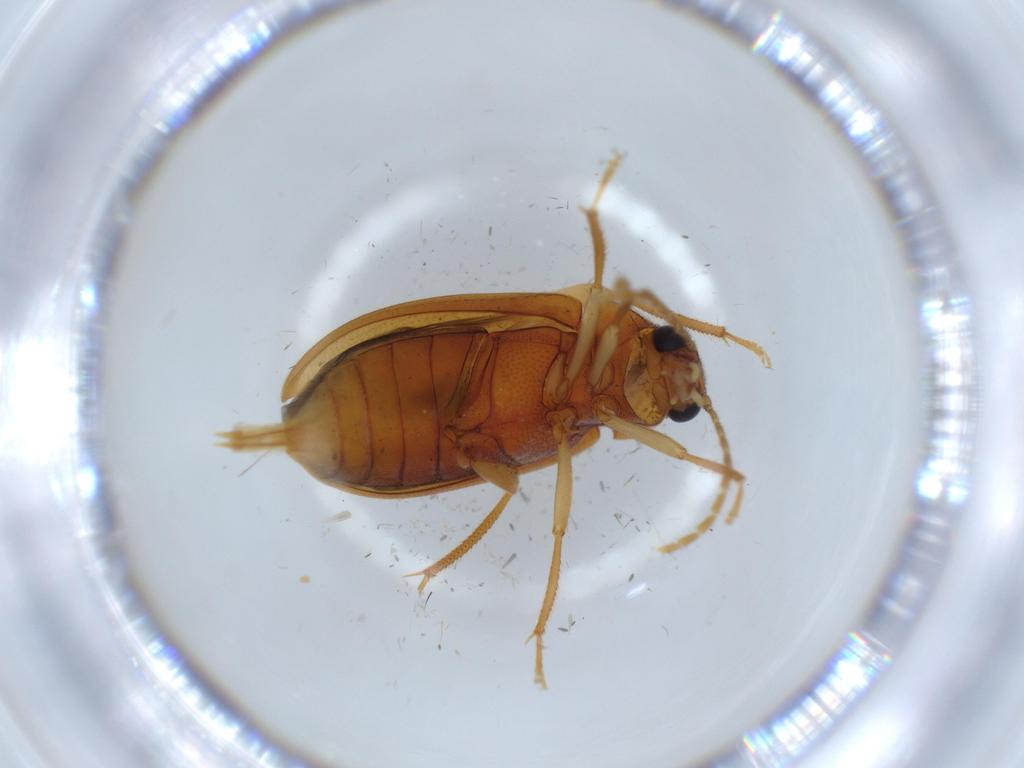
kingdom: Animalia
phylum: Arthropoda
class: Insecta
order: Coleoptera
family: Ptilodactylidae
